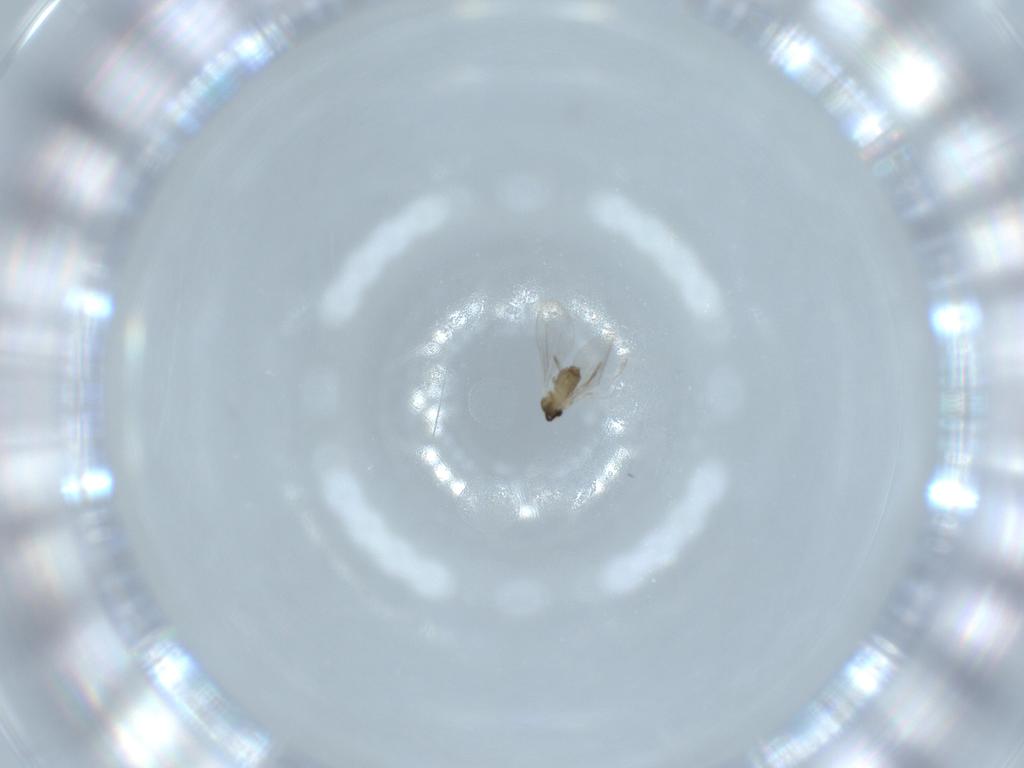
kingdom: Animalia
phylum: Arthropoda
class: Insecta
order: Diptera
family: Cecidomyiidae
